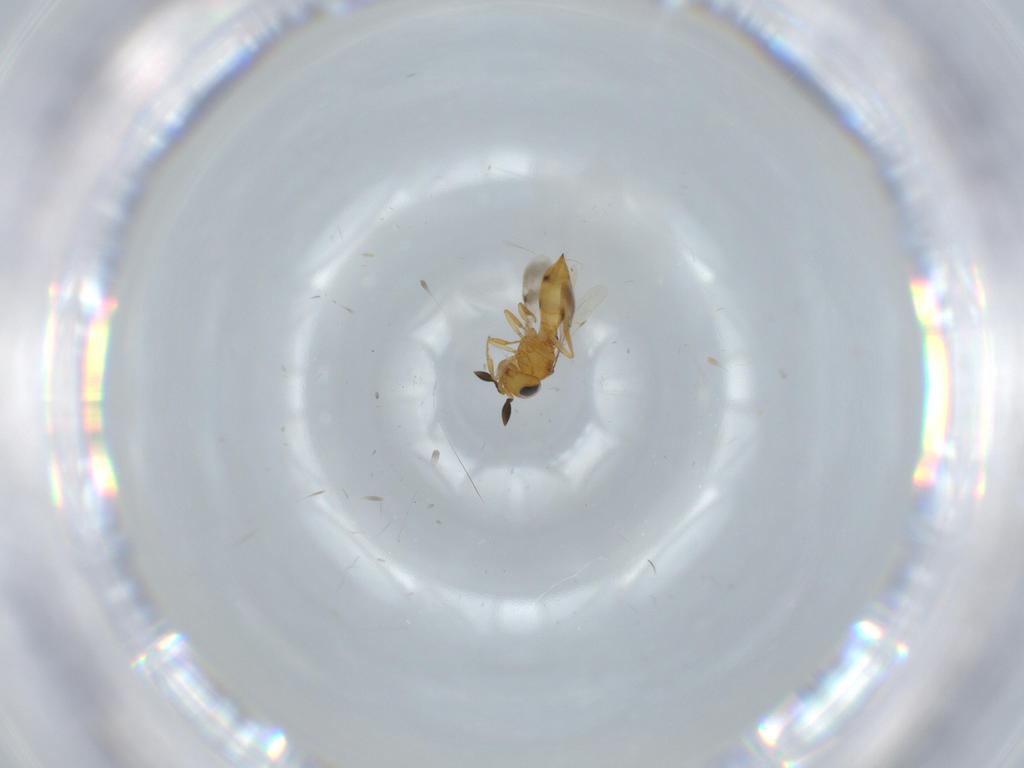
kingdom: Animalia
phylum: Arthropoda
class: Insecta
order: Hymenoptera
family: Scelionidae
